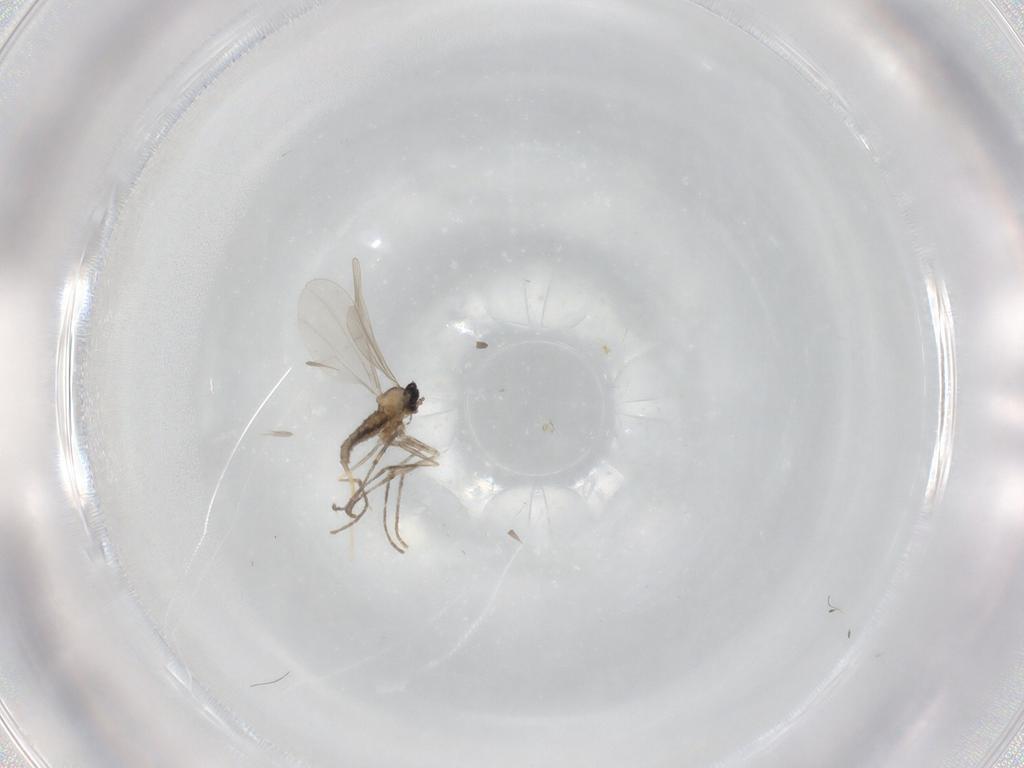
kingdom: Animalia
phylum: Arthropoda
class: Insecta
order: Diptera
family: Cecidomyiidae
